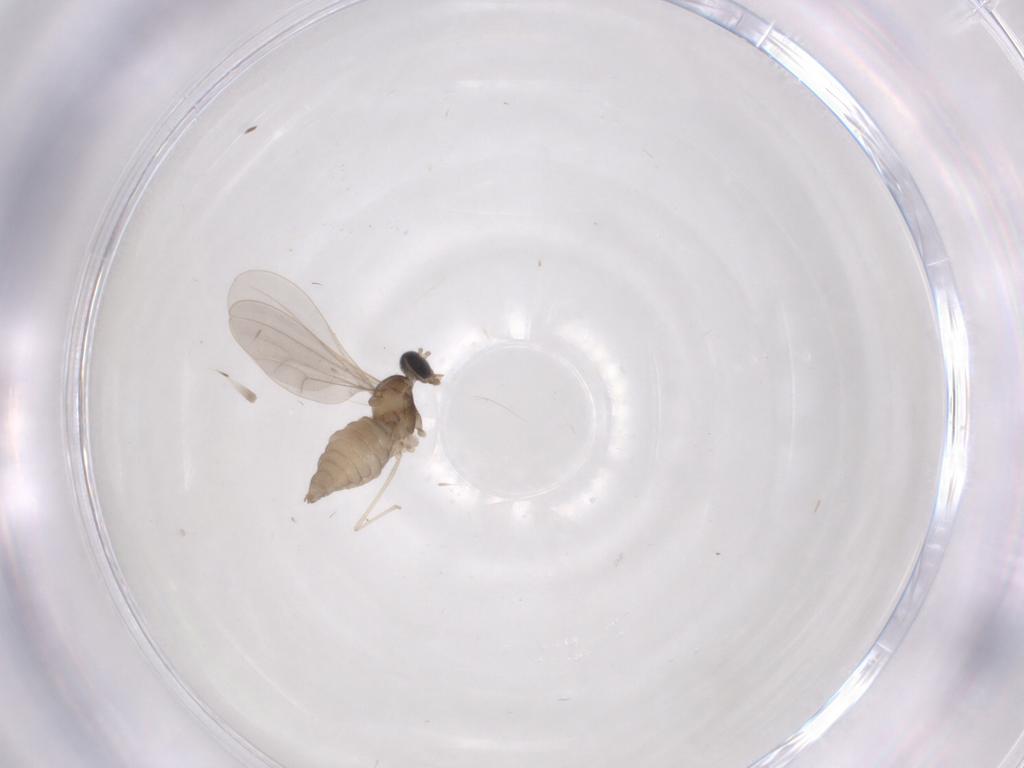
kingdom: Animalia
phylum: Arthropoda
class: Insecta
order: Diptera
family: Cecidomyiidae
